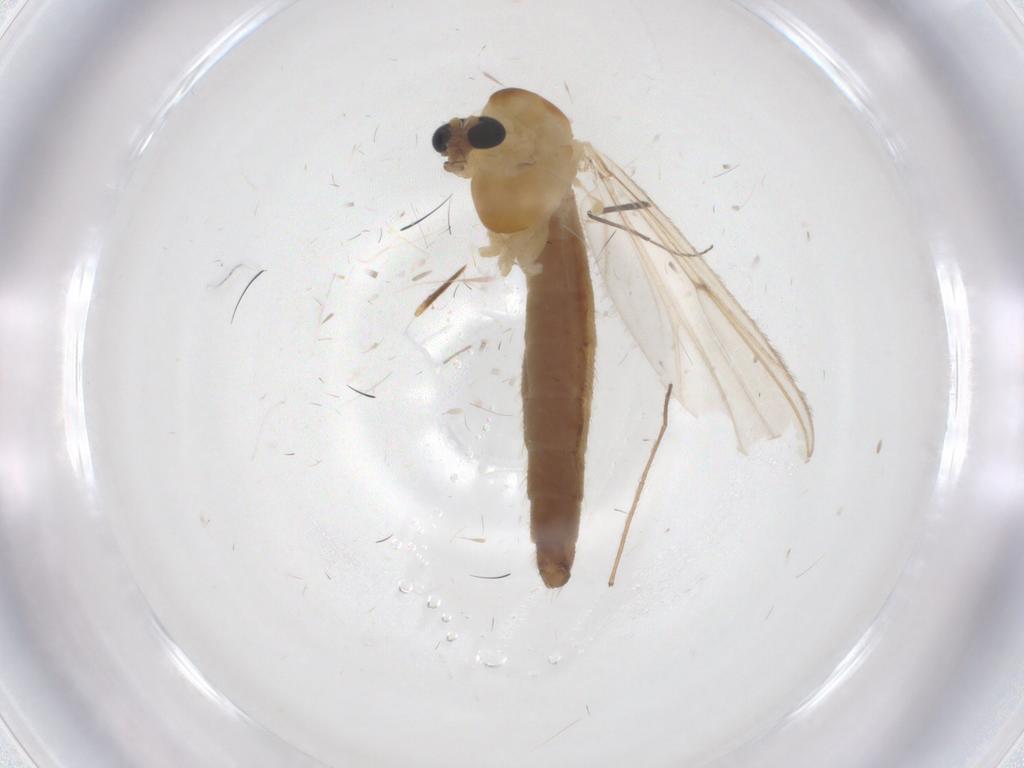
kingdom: Animalia
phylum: Arthropoda
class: Insecta
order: Diptera
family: Chironomidae
